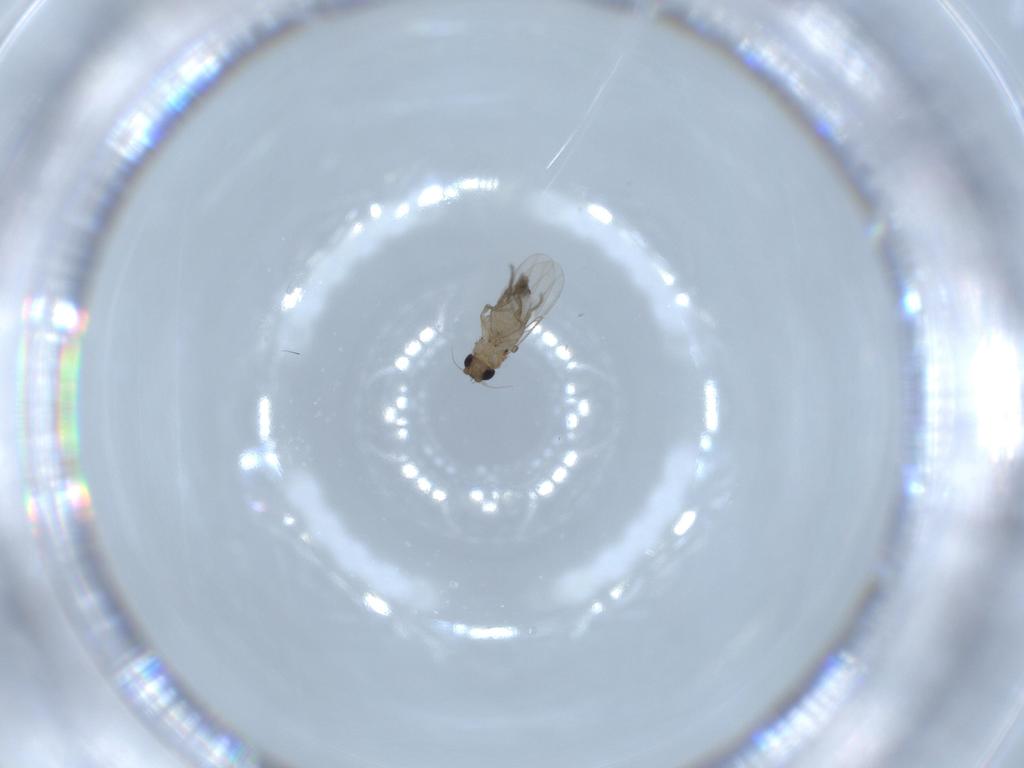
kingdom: Animalia
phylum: Arthropoda
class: Insecta
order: Diptera
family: Phoridae
